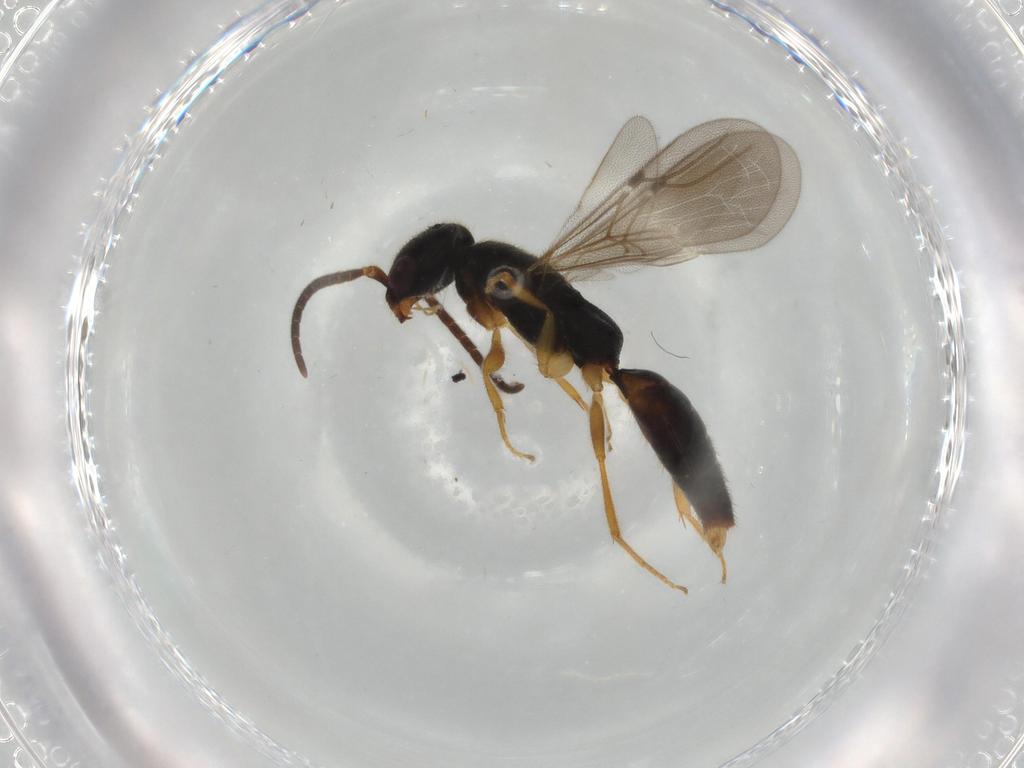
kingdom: Animalia
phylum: Arthropoda
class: Insecta
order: Hymenoptera
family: Bethylidae
